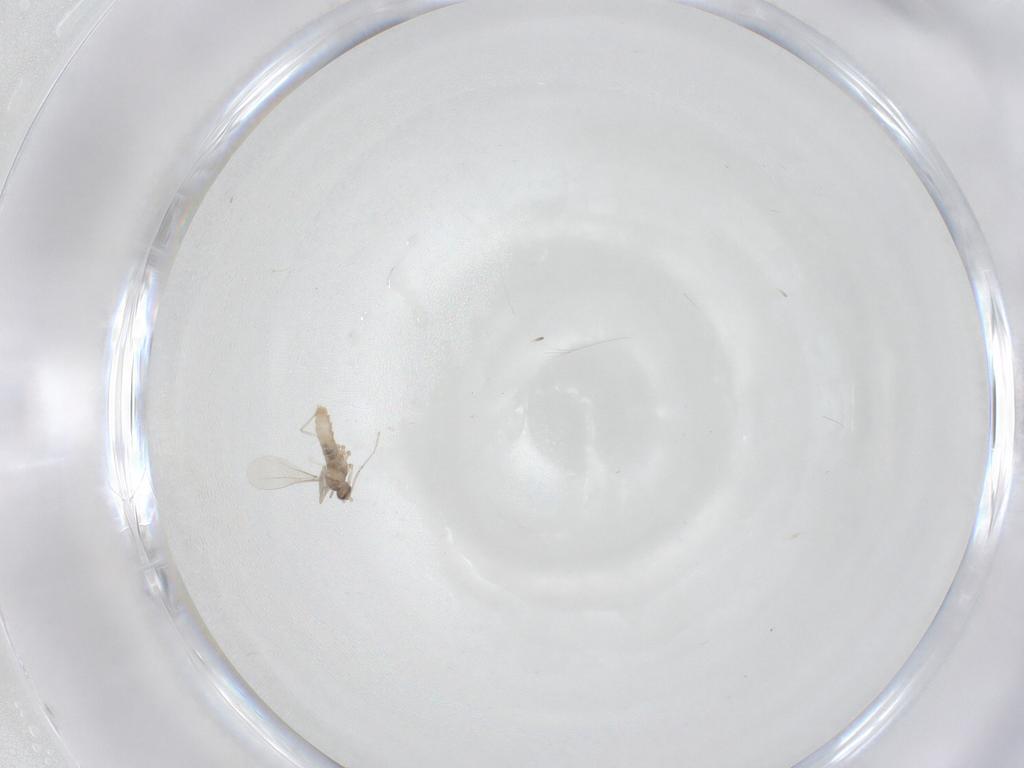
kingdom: Animalia
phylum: Arthropoda
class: Insecta
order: Diptera
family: Cecidomyiidae
